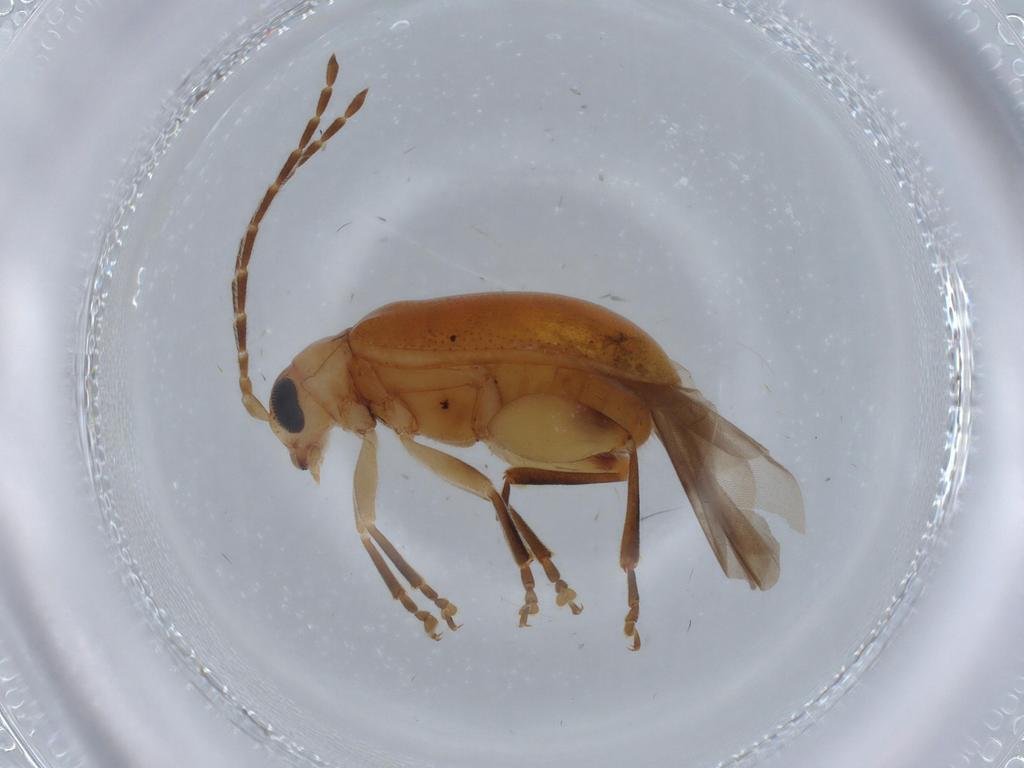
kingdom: Animalia
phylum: Arthropoda
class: Insecta
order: Coleoptera
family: Chrysomelidae
